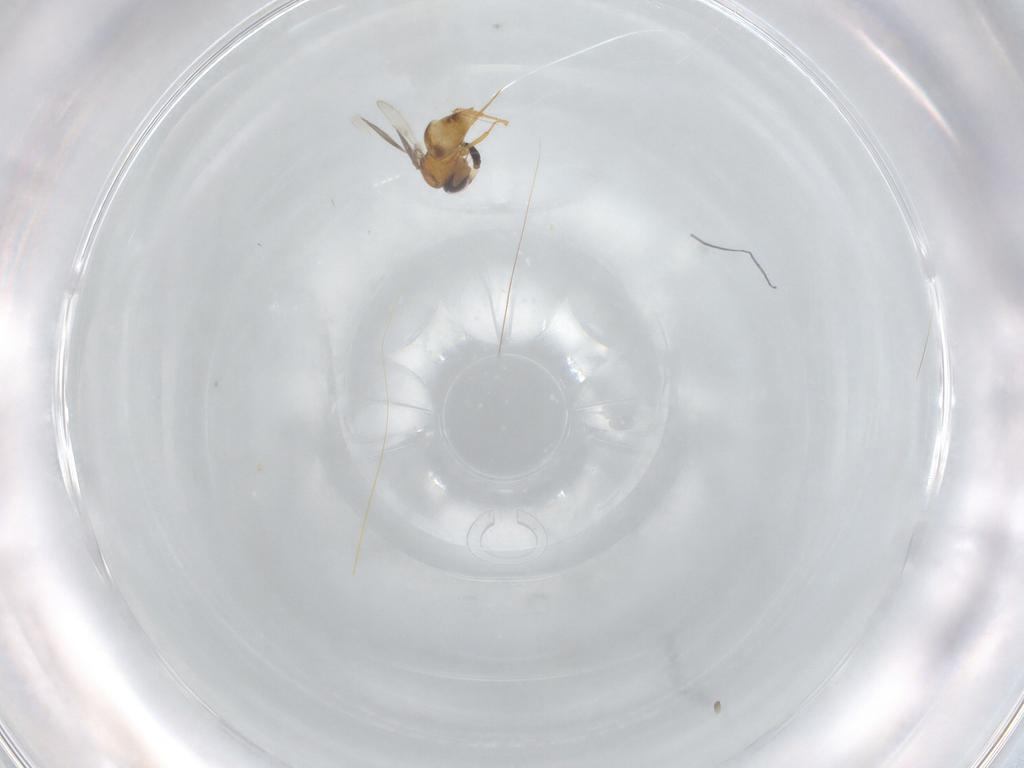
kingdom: Animalia
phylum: Arthropoda
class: Insecta
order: Hymenoptera
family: Ceraphronidae
